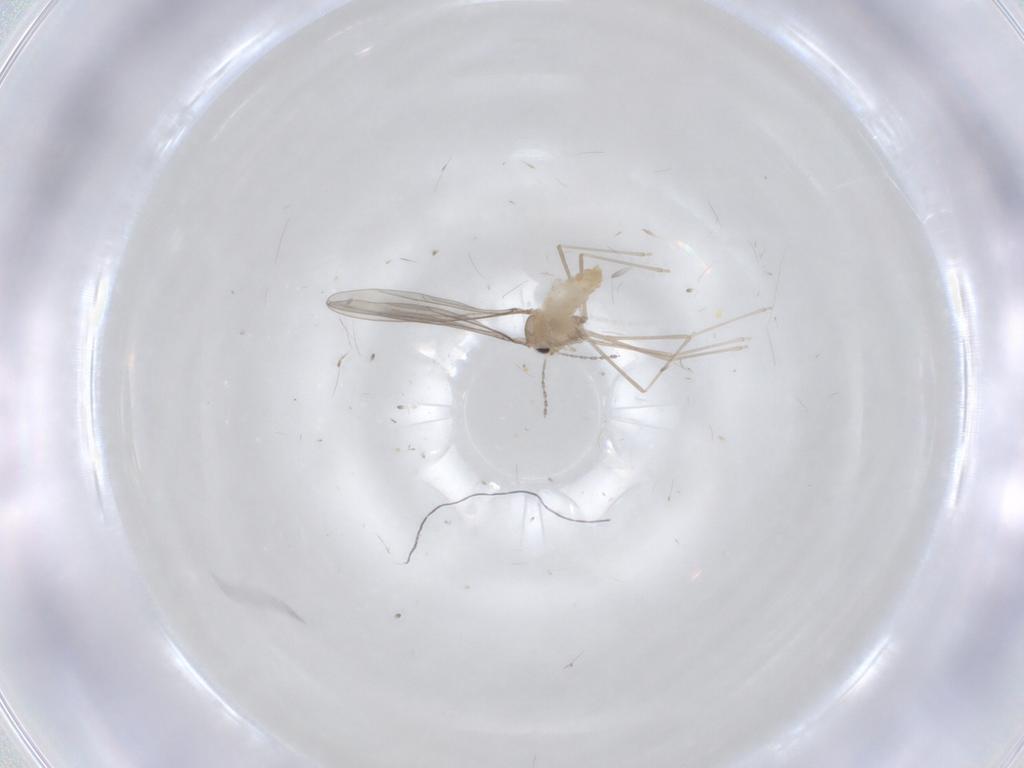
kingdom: Animalia
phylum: Arthropoda
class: Insecta
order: Diptera
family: Cecidomyiidae
